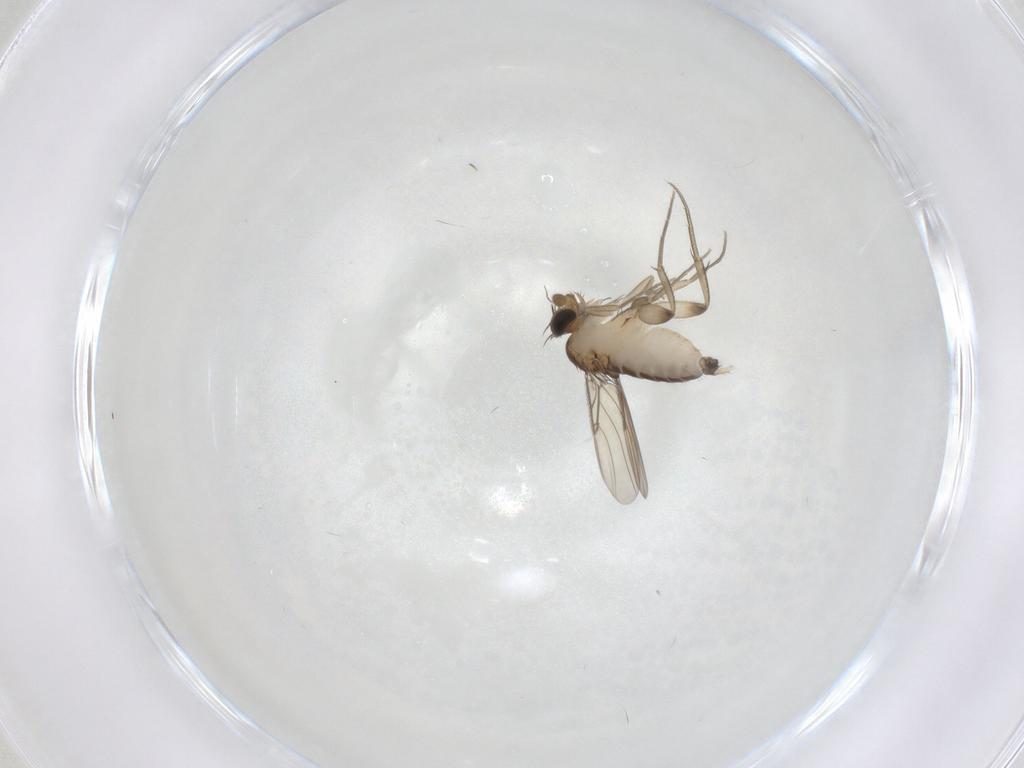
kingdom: Animalia
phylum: Arthropoda
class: Insecta
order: Diptera
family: Phoridae
